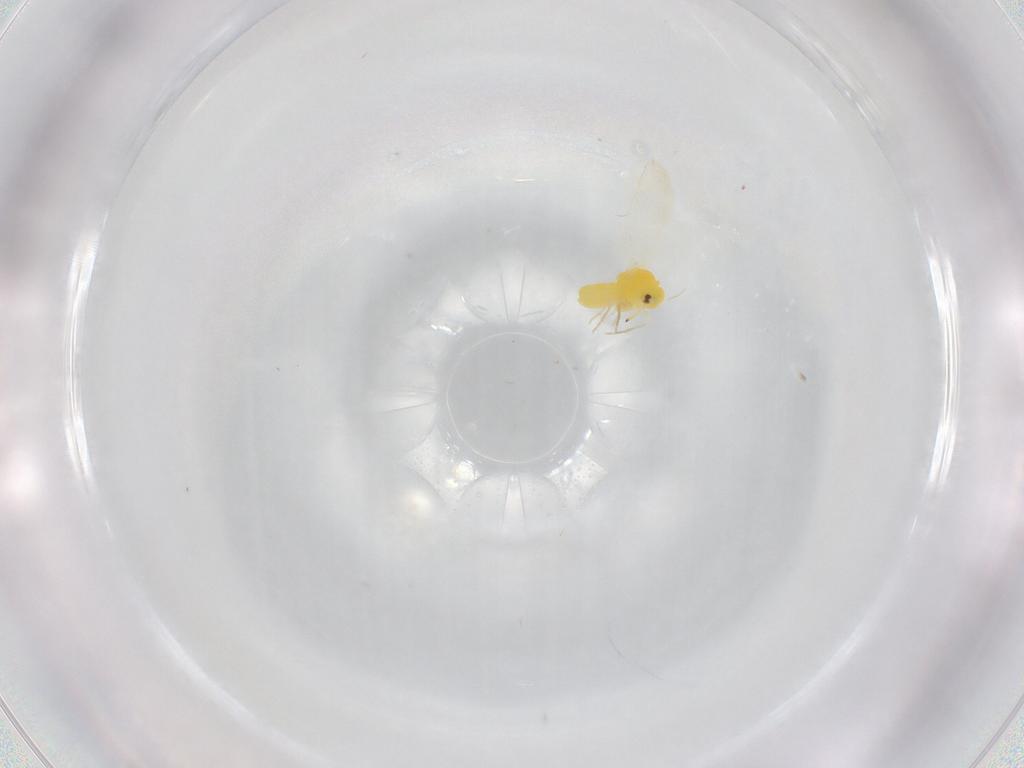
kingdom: Animalia
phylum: Arthropoda
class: Insecta
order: Hemiptera
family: Aleyrodidae
